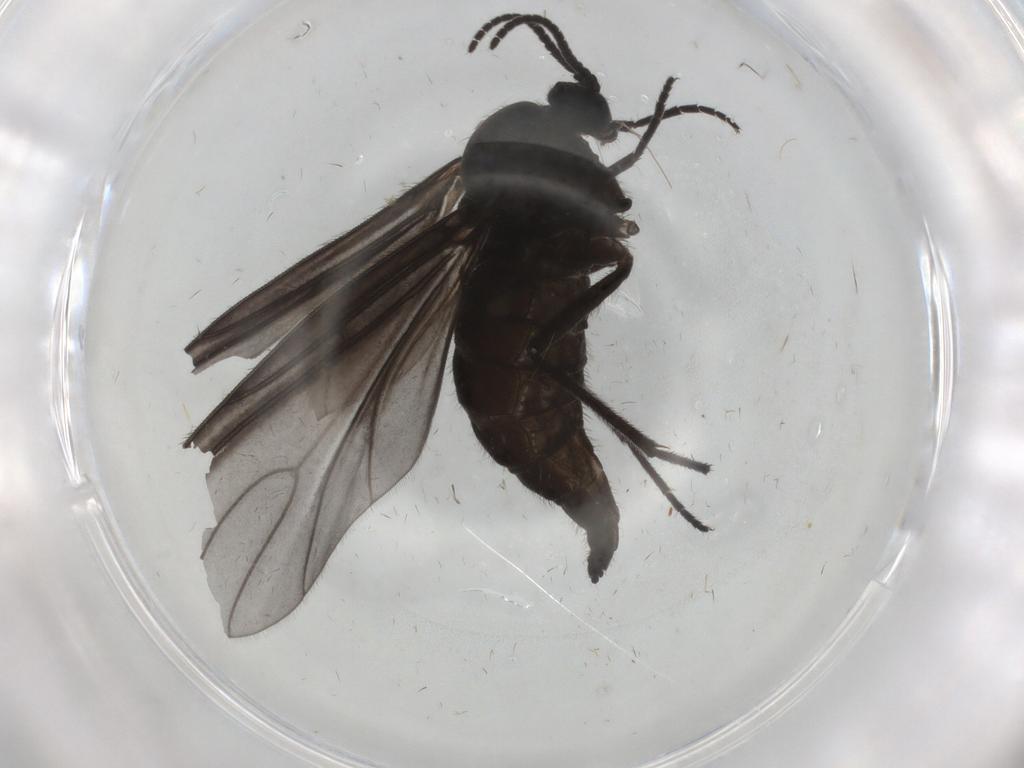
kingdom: Animalia
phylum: Arthropoda
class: Insecta
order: Diptera
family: Sciaridae
